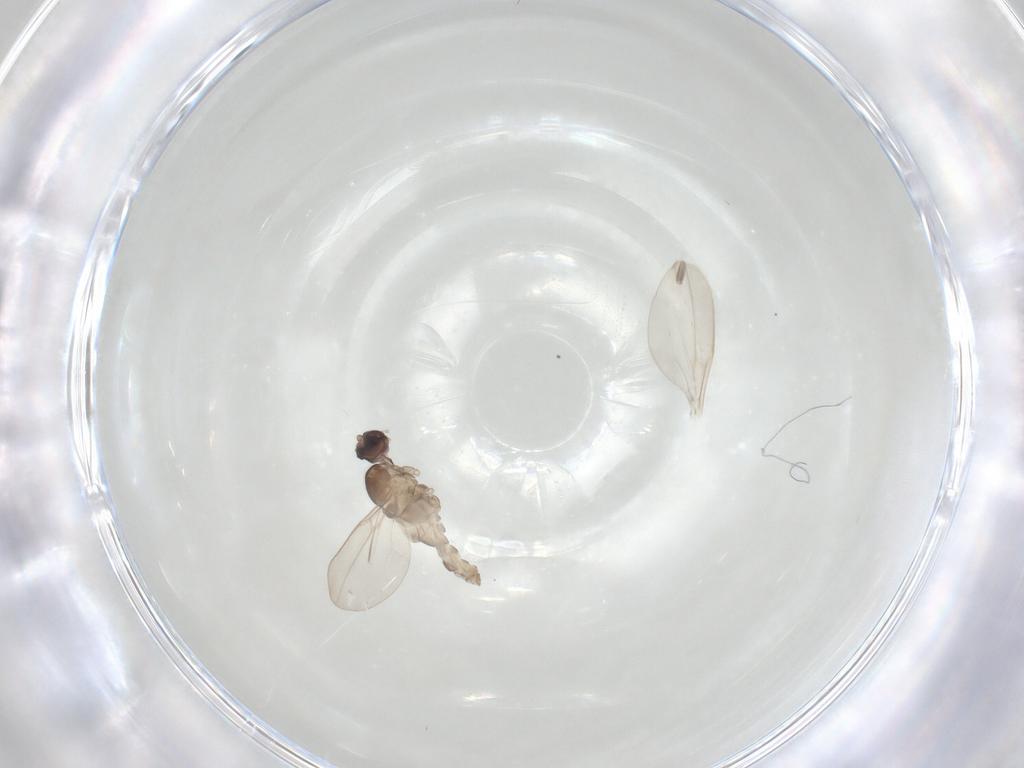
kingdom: Animalia
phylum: Arthropoda
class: Insecta
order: Diptera
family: Cecidomyiidae
